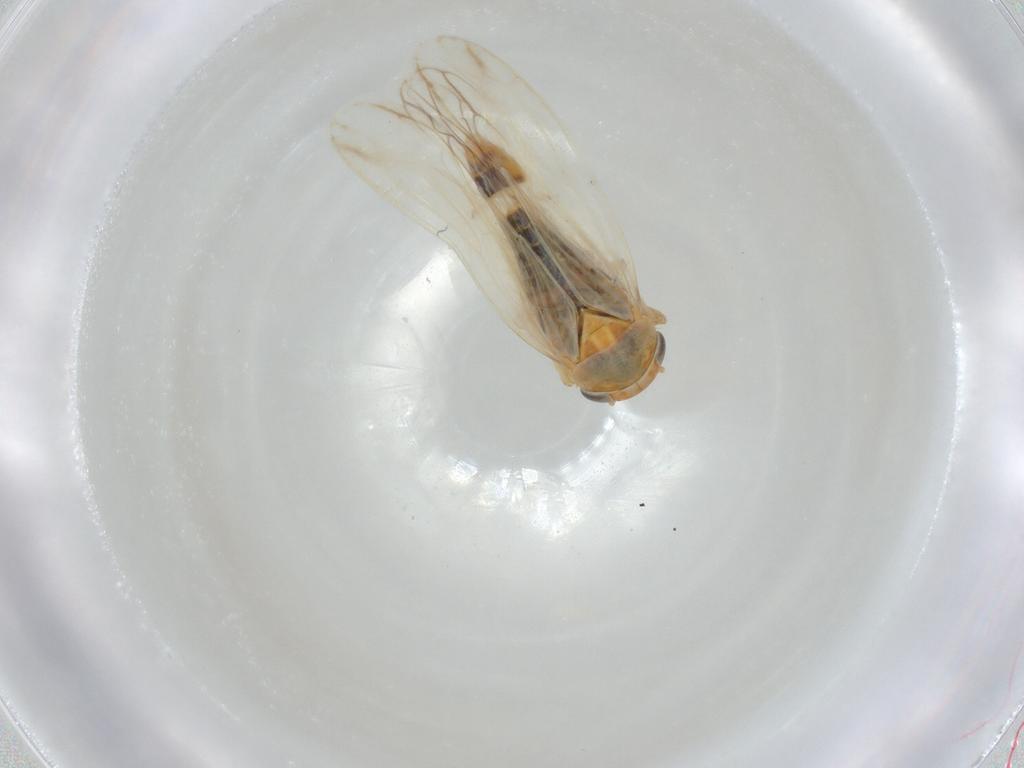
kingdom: Animalia
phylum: Arthropoda
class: Insecta
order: Hemiptera
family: Cicadellidae
